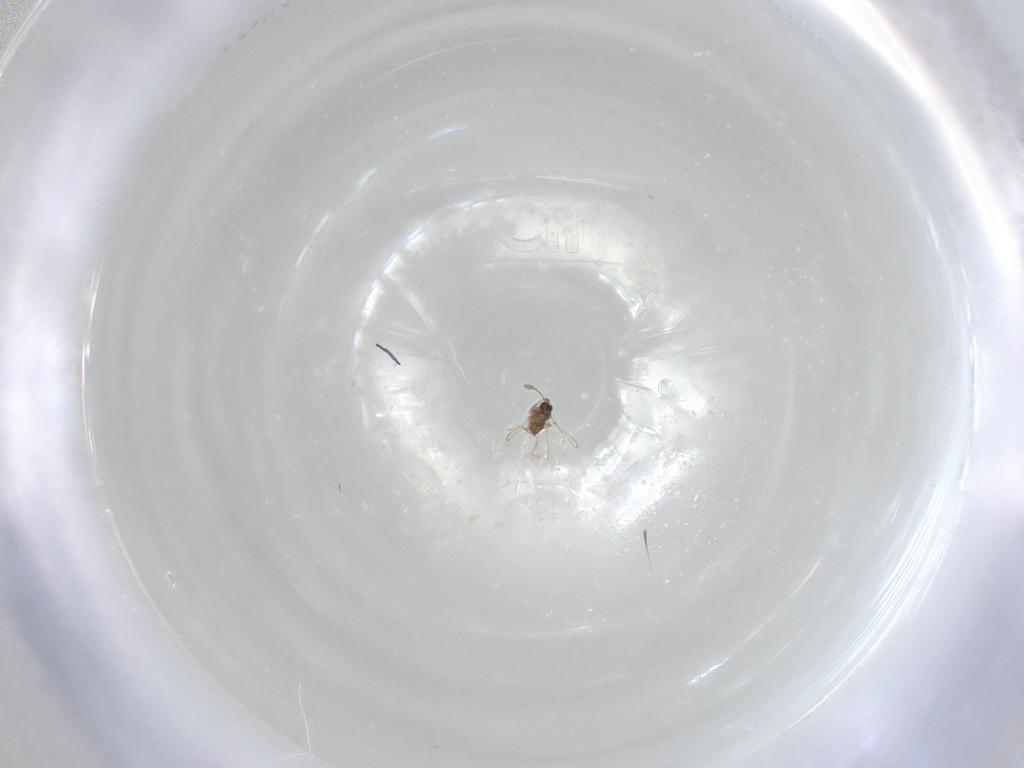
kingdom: Animalia
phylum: Arthropoda
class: Insecta
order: Hymenoptera
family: Mymaridae
